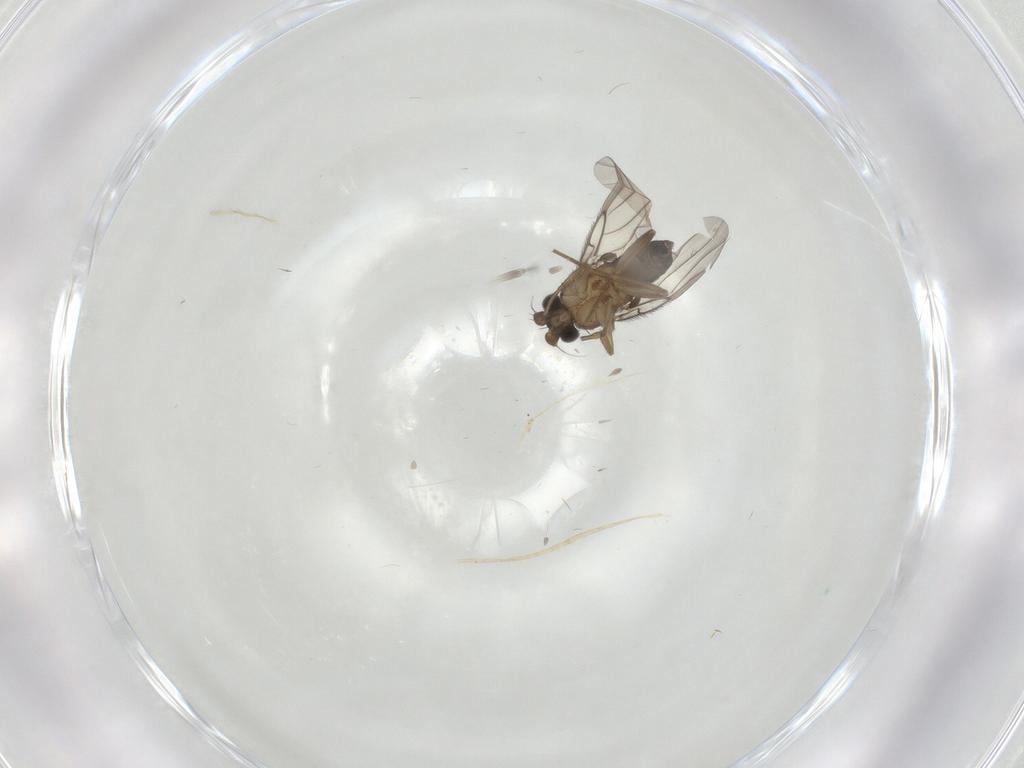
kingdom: Animalia
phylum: Arthropoda
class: Insecta
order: Diptera
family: Phoridae
